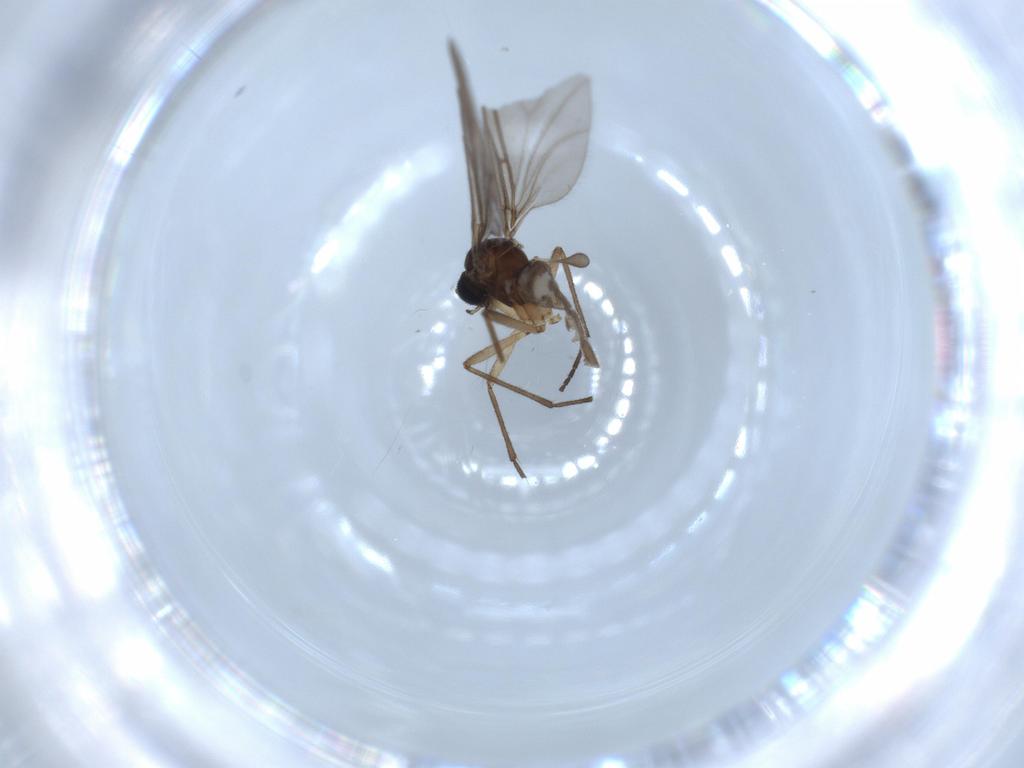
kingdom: Animalia
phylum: Arthropoda
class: Insecta
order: Diptera
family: Sciaridae
